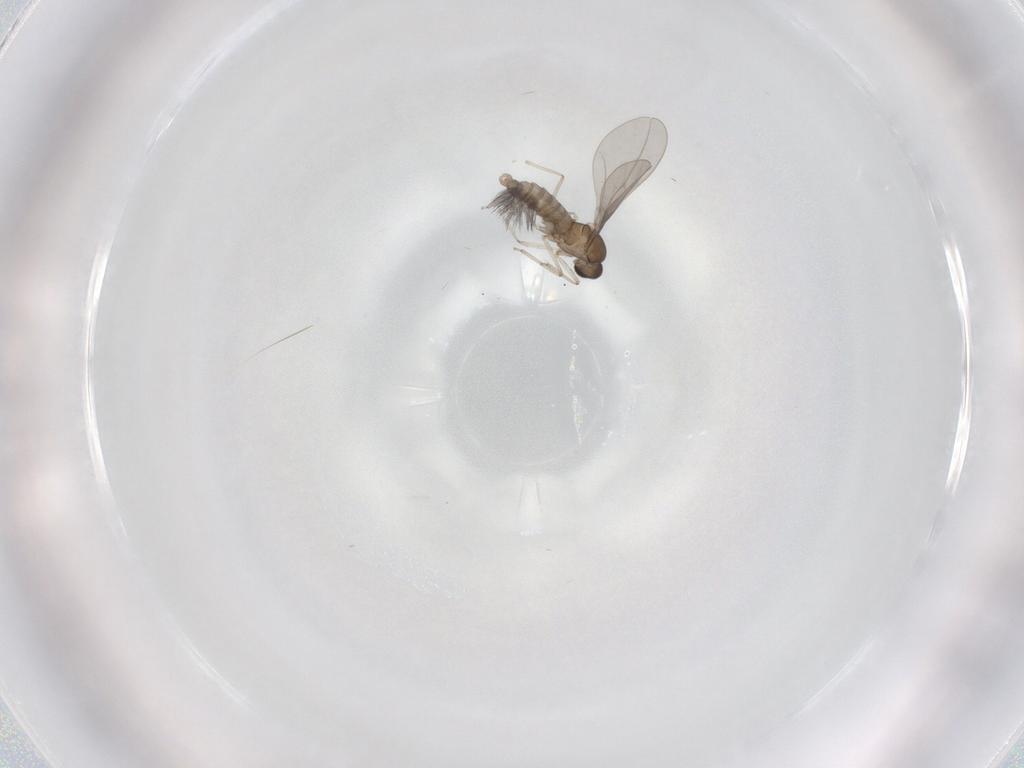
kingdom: Animalia
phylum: Arthropoda
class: Insecta
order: Diptera
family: Cecidomyiidae
